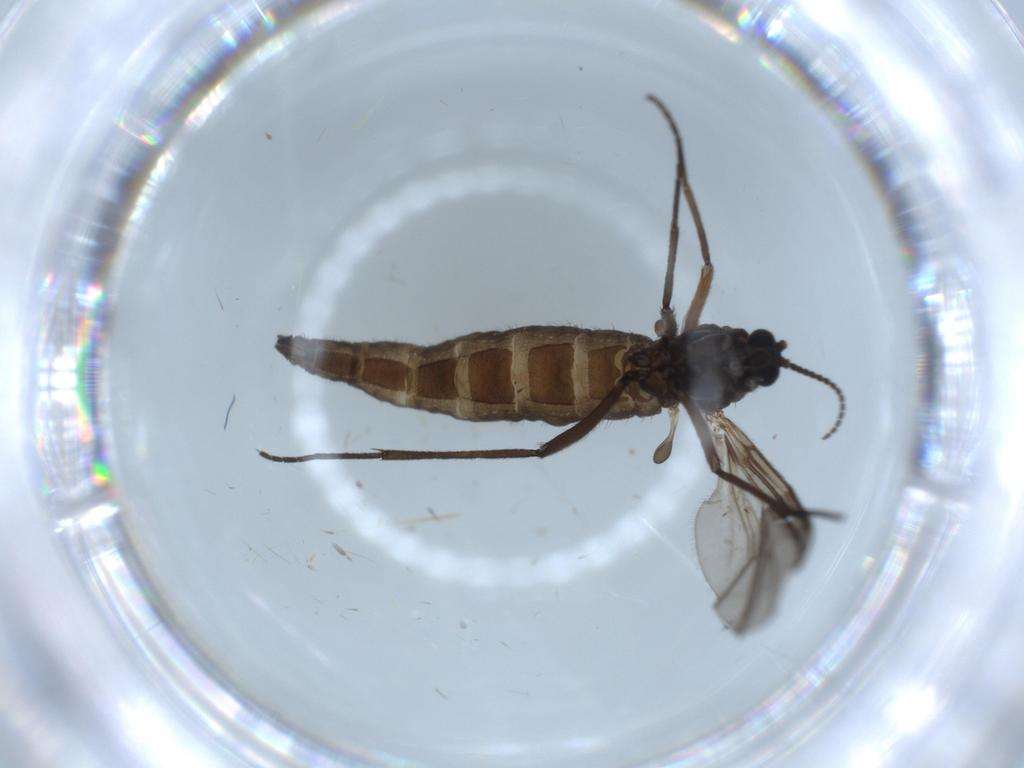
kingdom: Animalia
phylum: Arthropoda
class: Insecta
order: Diptera
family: Sciaridae
